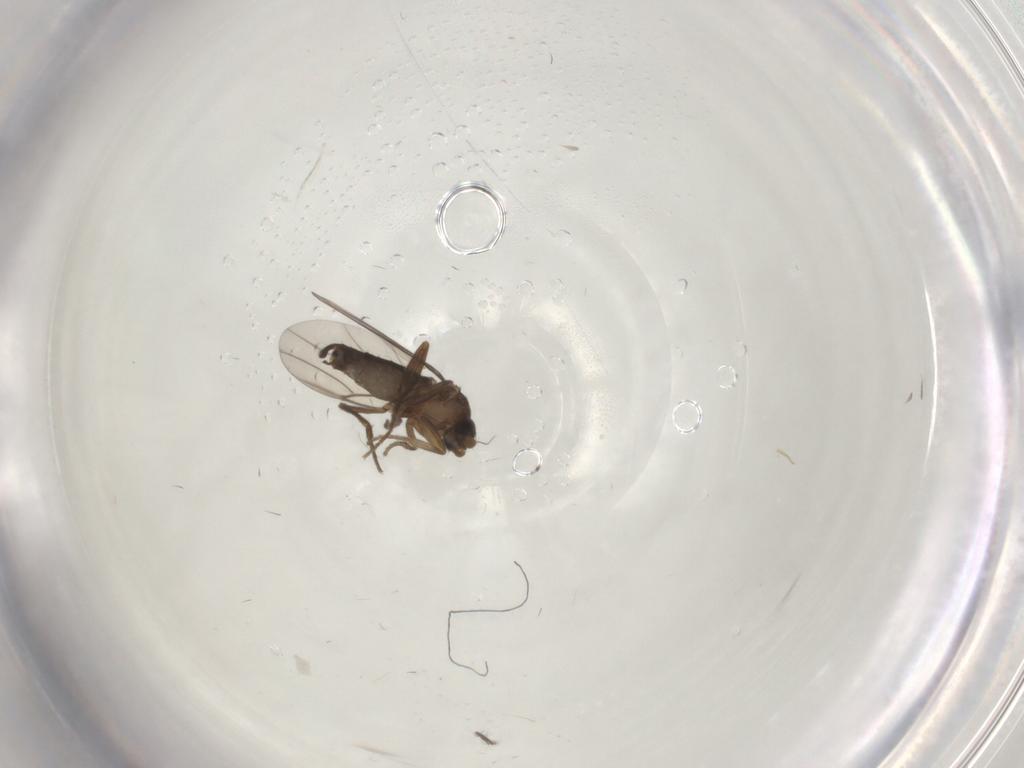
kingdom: Animalia
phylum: Arthropoda
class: Insecta
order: Diptera
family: Phoridae
